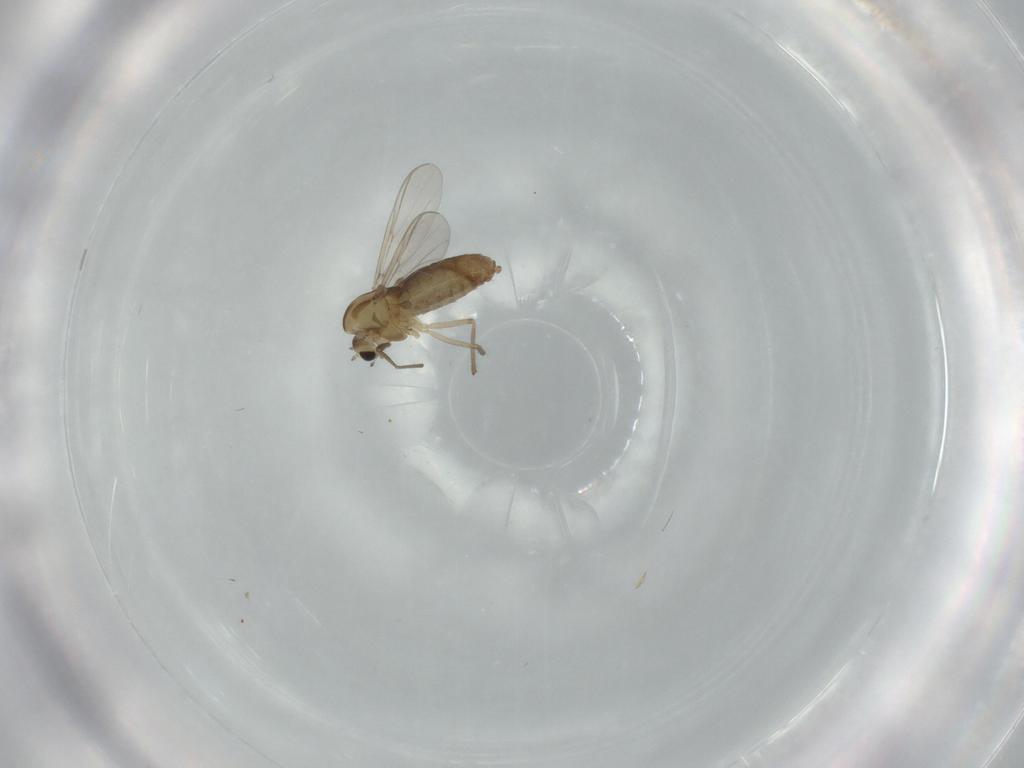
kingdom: Animalia
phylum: Arthropoda
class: Insecta
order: Diptera
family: Chironomidae
